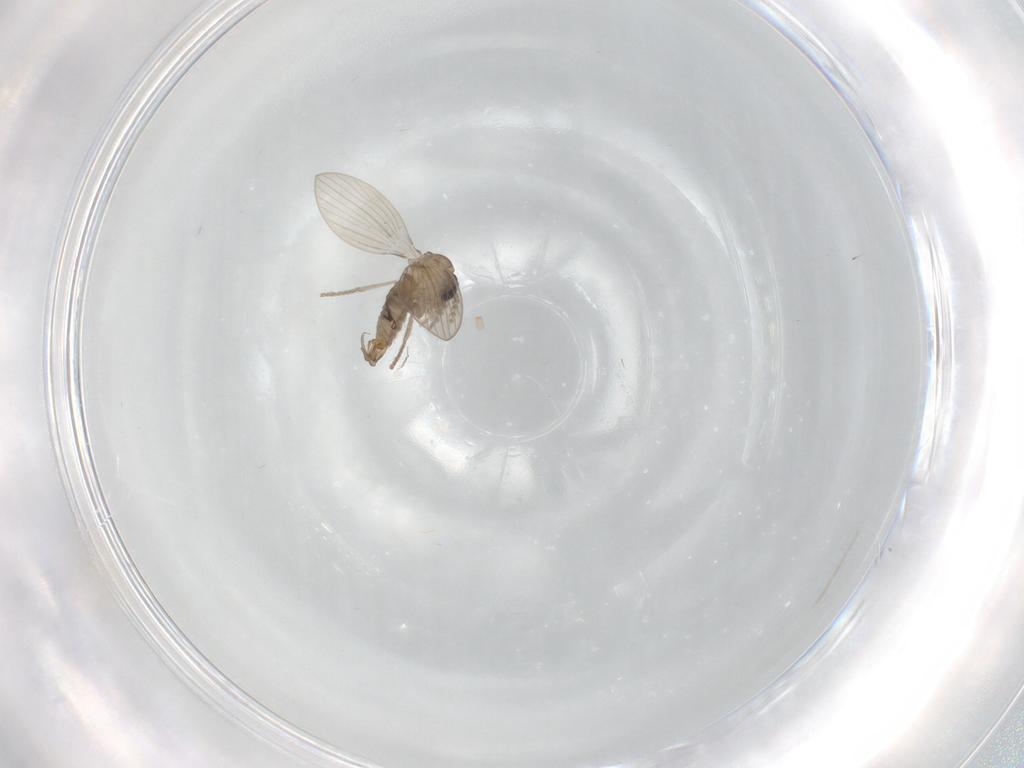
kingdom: Animalia
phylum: Arthropoda
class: Insecta
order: Diptera
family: Psychodidae
